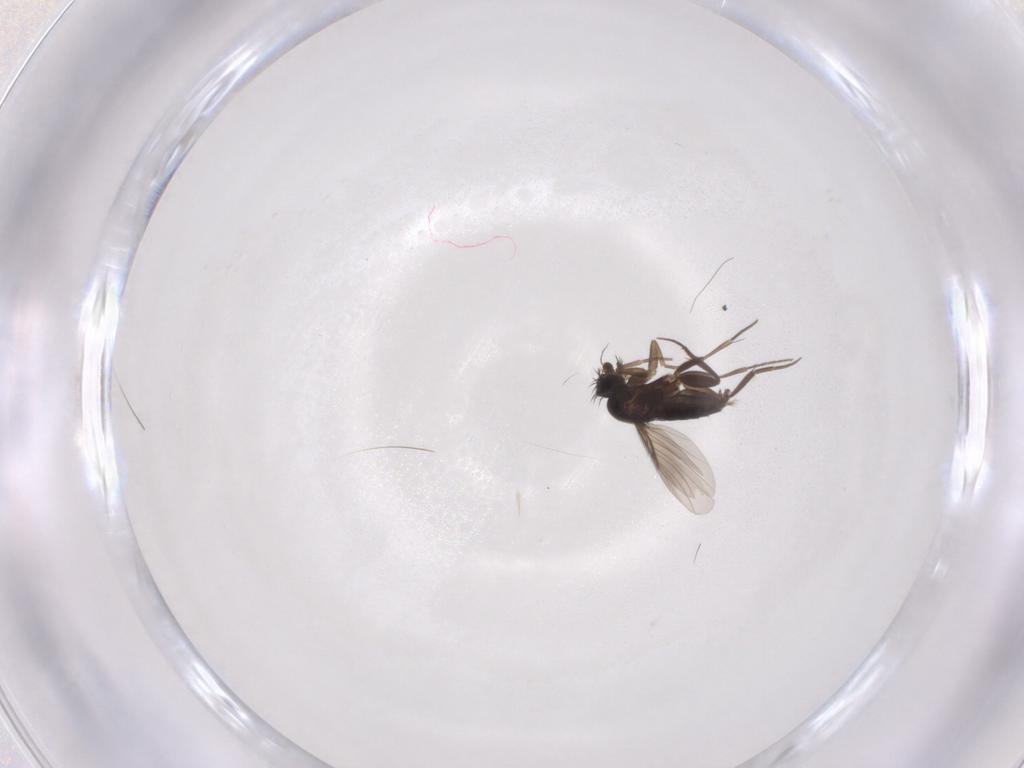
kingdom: Animalia
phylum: Arthropoda
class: Insecta
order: Diptera
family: Phoridae
